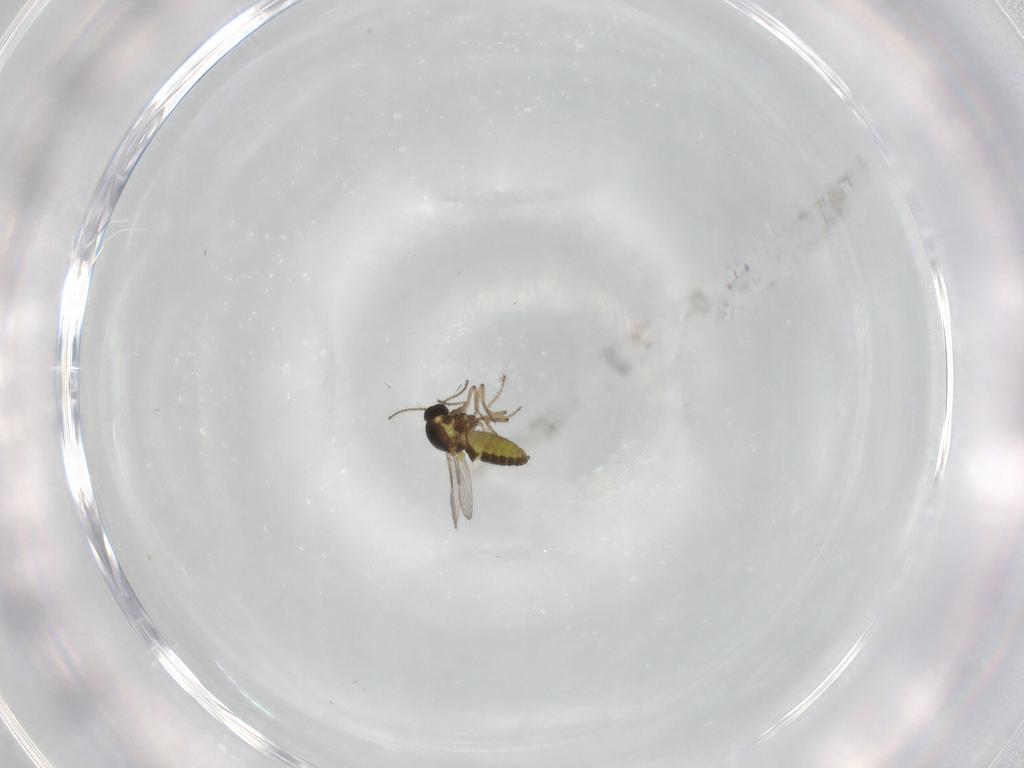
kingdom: Animalia
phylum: Arthropoda
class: Insecta
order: Diptera
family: Ceratopogonidae
